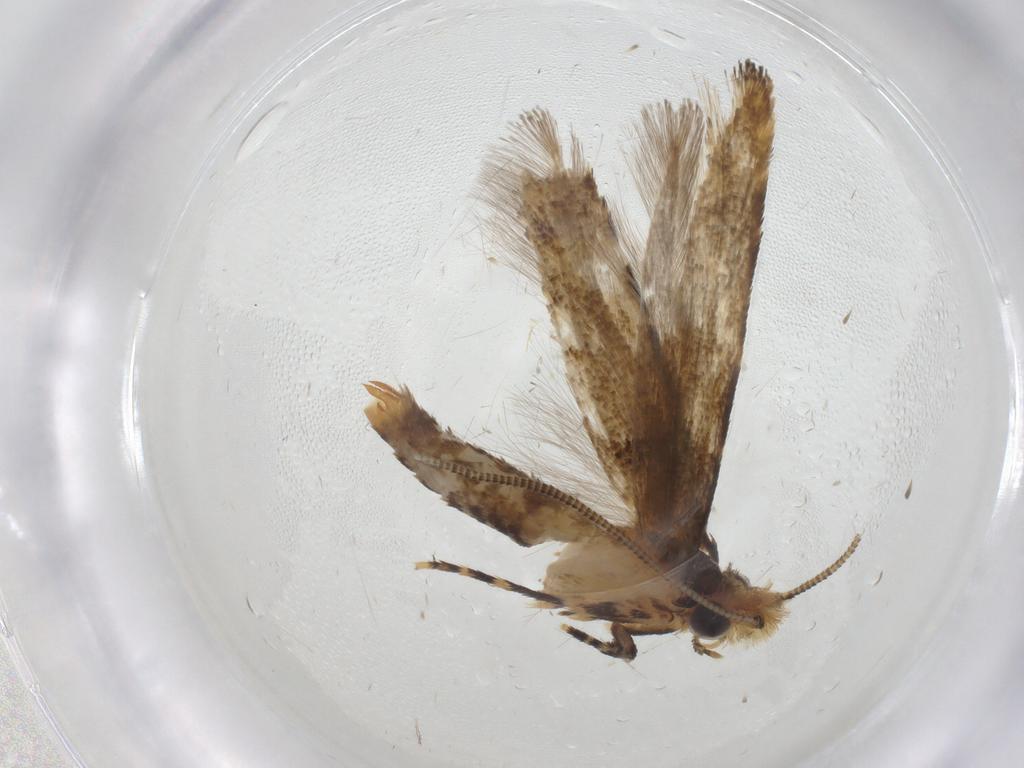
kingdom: Animalia
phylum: Arthropoda
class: Insecta
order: Lepidoptera
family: Tineidae
